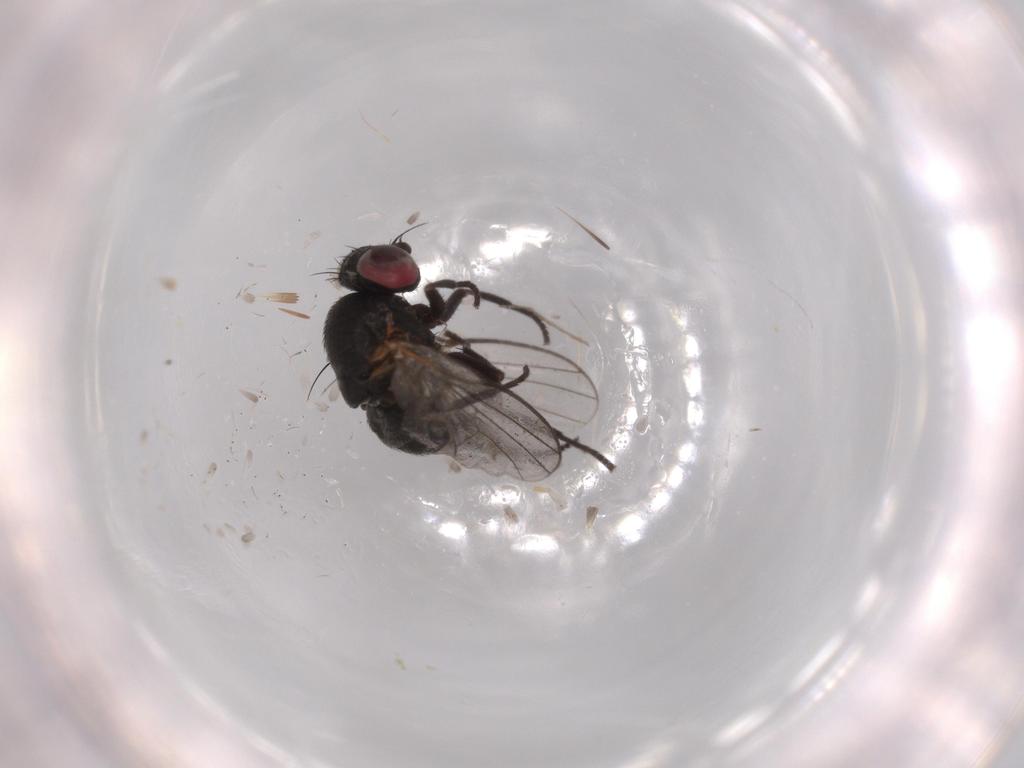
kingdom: Animalia
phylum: Arthropoda
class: Insecta
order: Diptera
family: Agromyzidae
